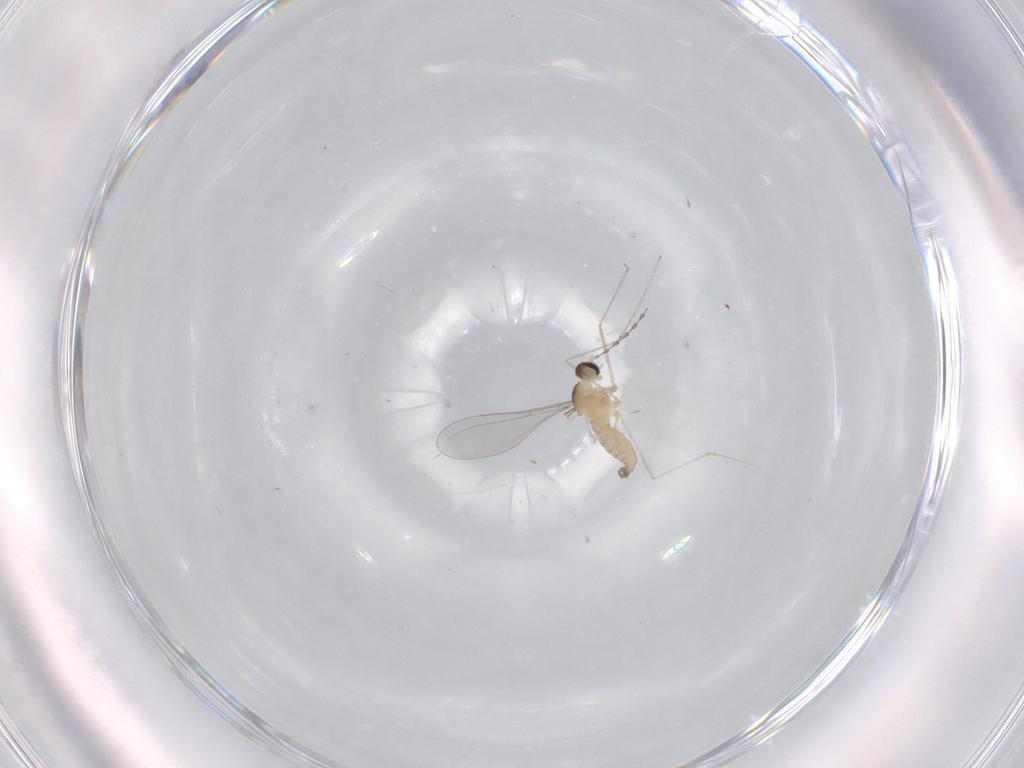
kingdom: Animalia
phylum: Arthropoda
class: Insecta
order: Diptera
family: Cecidomyiidae
